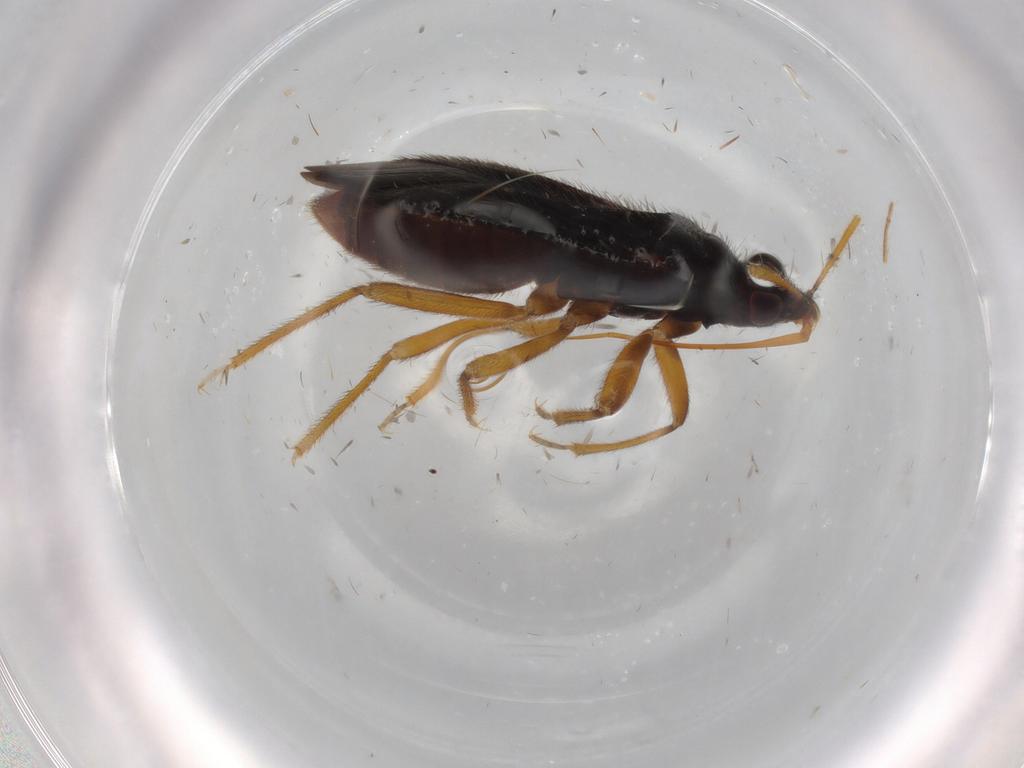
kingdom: Animalia
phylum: Arthropoda
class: Insecta
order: Hemiptera
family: Anthocoridae
